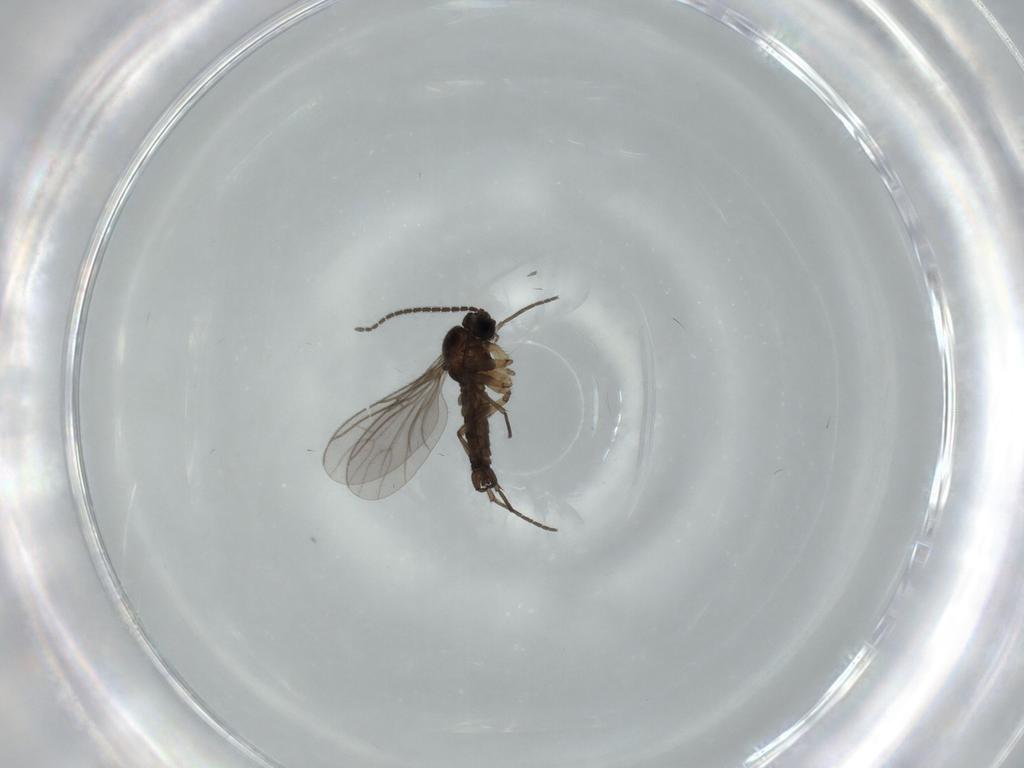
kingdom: Animalia
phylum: Arthropoda
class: Insecta
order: Diptera
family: Sciaridae
